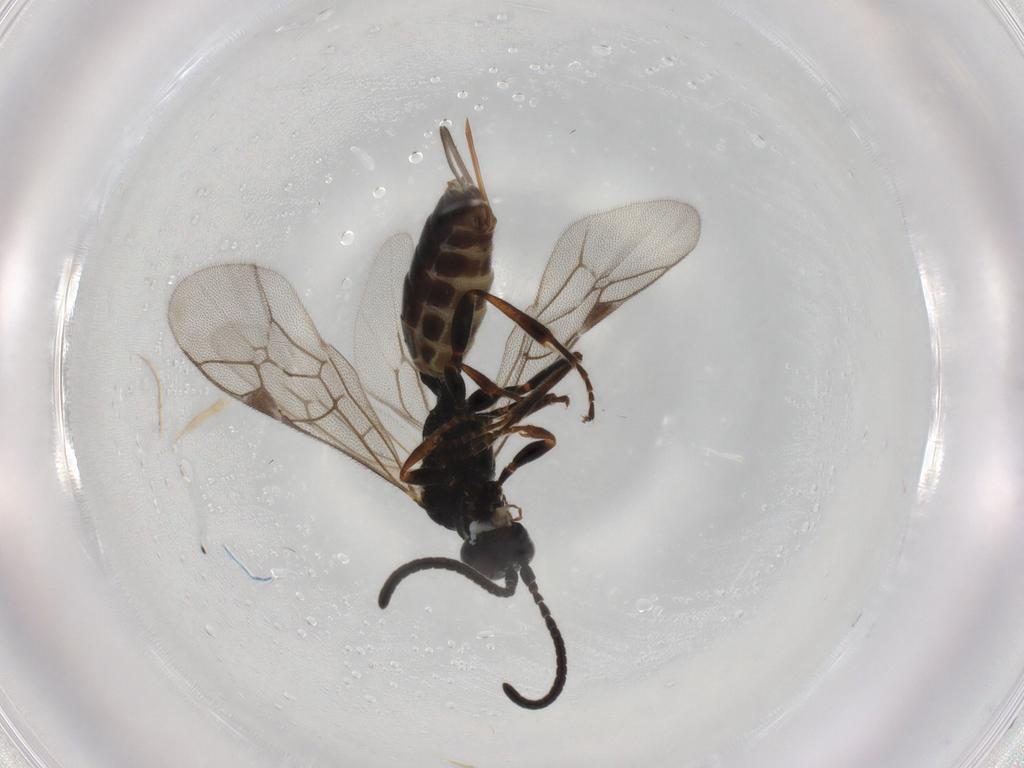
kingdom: Animalia
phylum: Arthropoda
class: Insecta
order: Hymenoptera
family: Ichneumonidae
